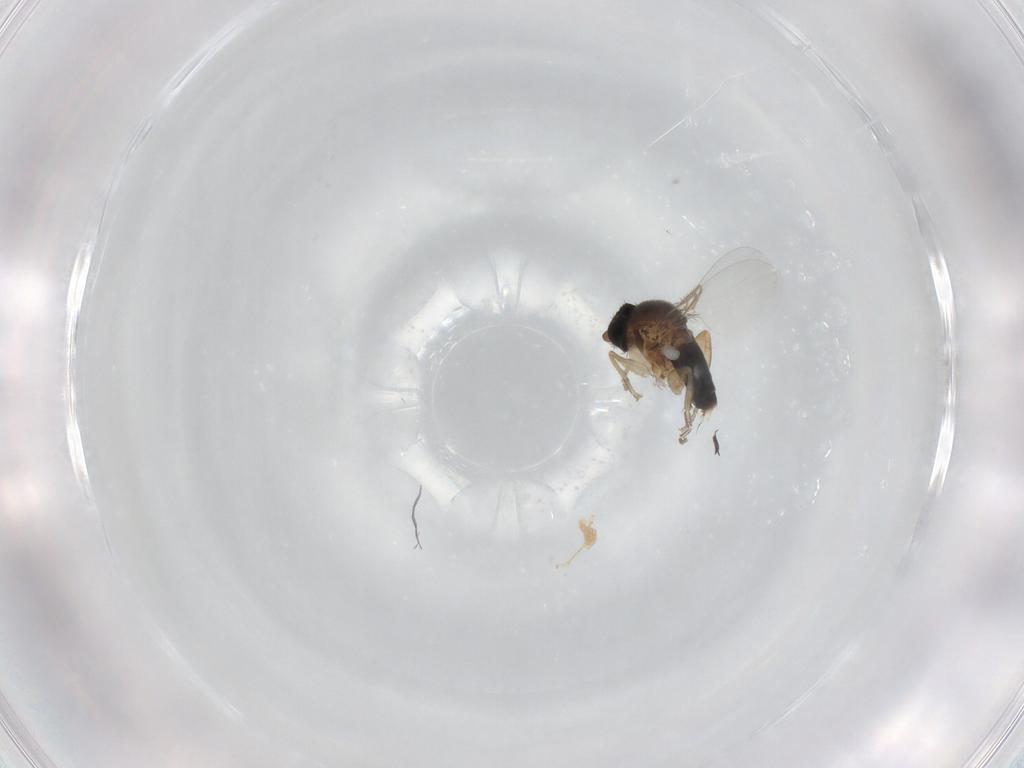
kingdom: Animalia
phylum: Arthropoda
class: Insecta
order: Diptera
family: Phoridae
